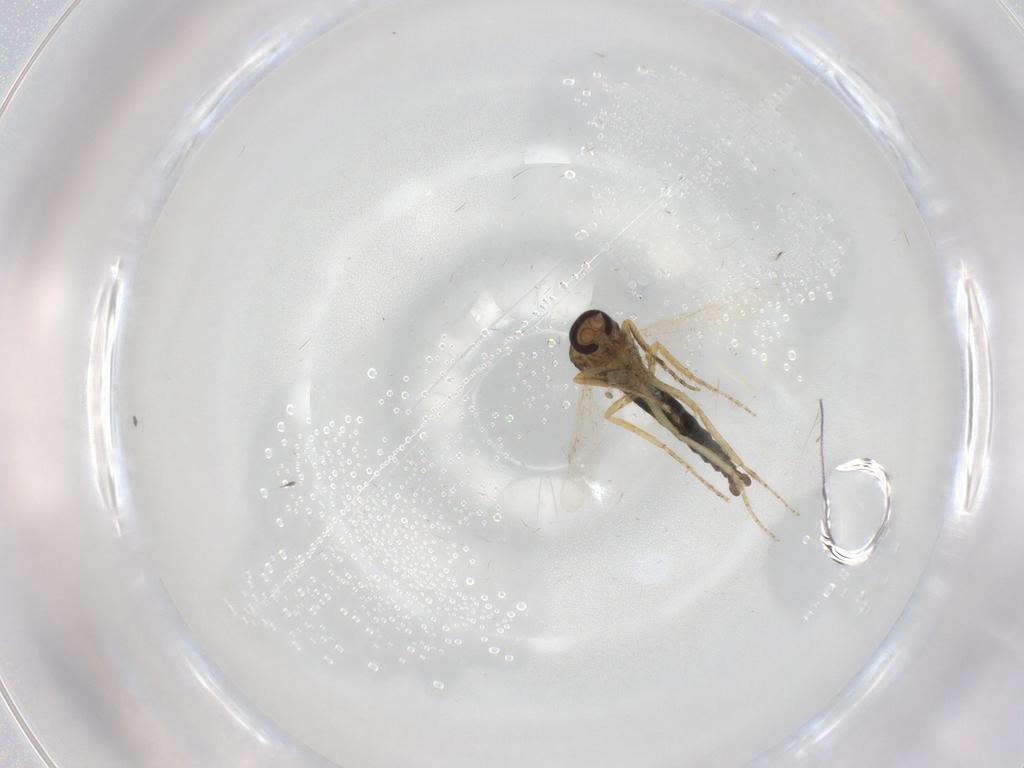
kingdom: Animalia
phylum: Arthropoda
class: Insecta
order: Diptera
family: Ceratopogonidae
